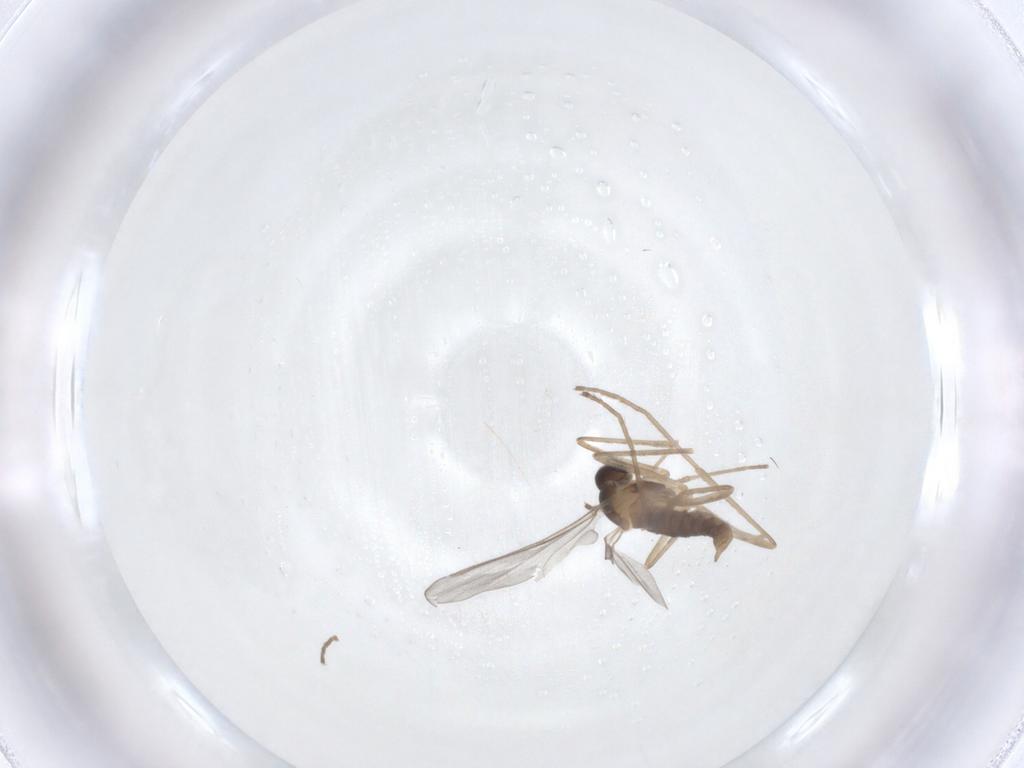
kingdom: Animalia
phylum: Arthropoda
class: Insecta
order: Diptera
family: Cecidomyiidae
